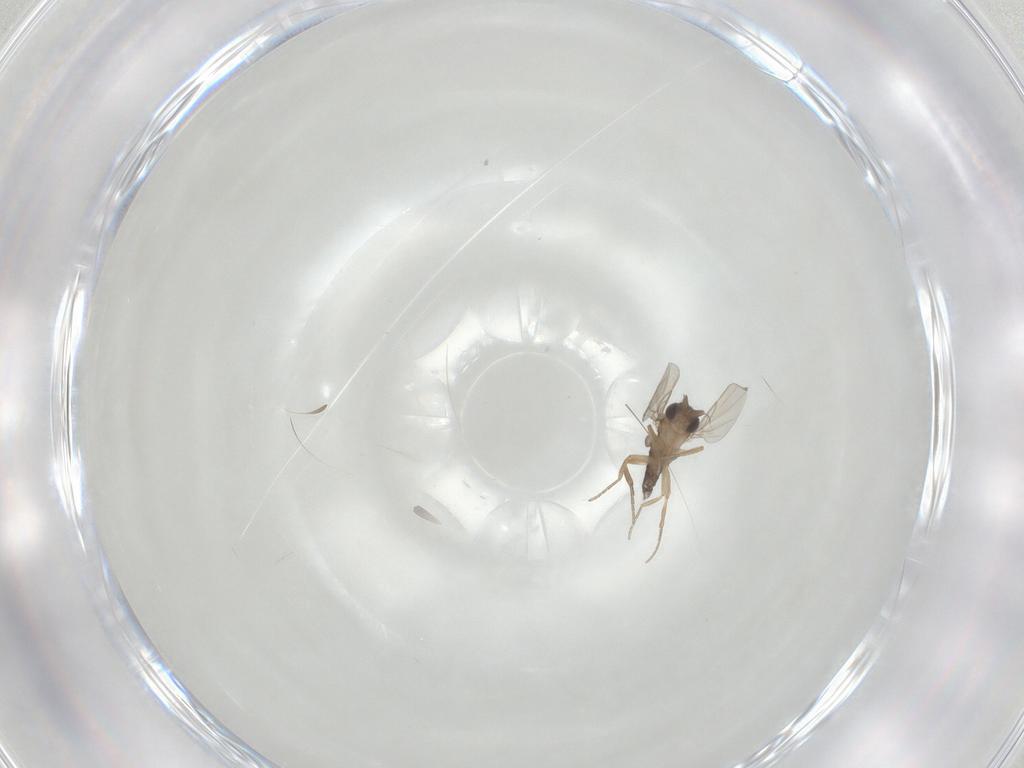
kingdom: Animalia
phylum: Arthropoda
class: Insecta
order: Diptera
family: Phoridae
